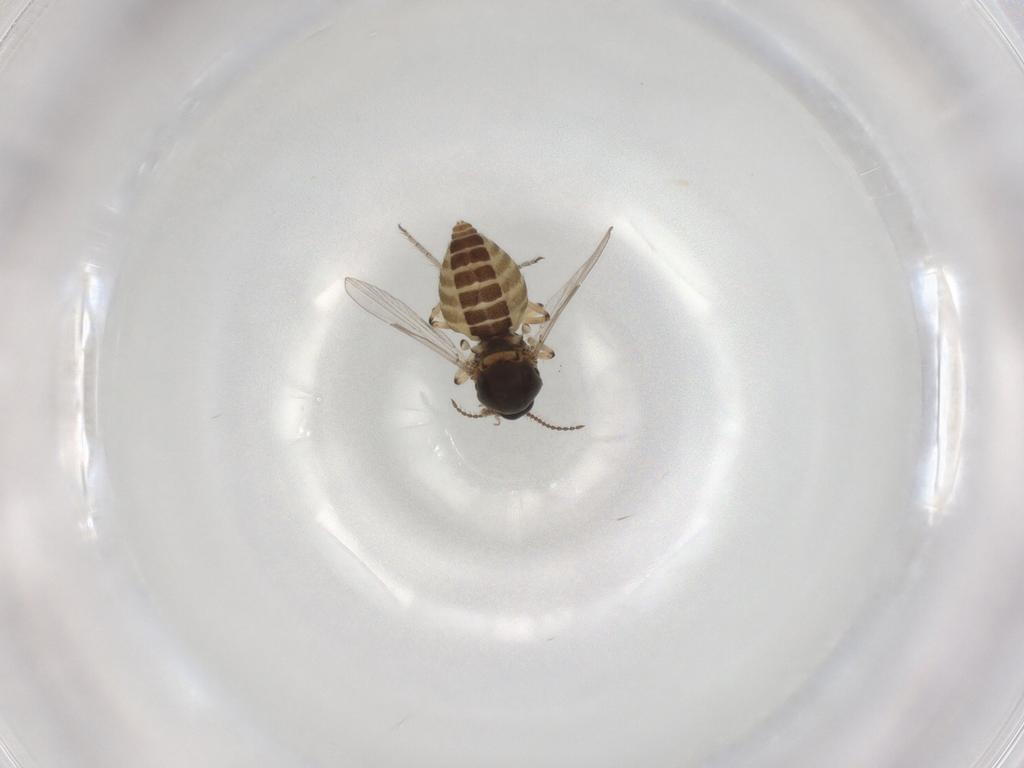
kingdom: Animalia
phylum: Arthropoda
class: Insecta
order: Diptera
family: Ceratopogonidae
